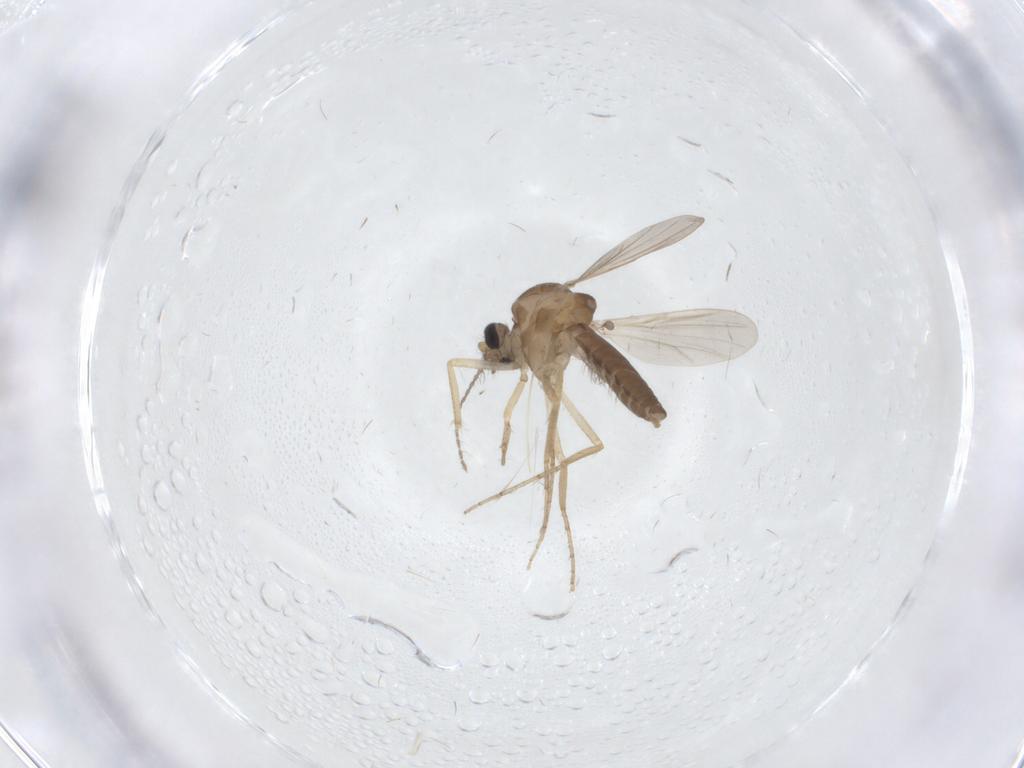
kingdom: Animalia
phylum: Arthropoda
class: Insecta
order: Diptera
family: Ceratopogonidae
